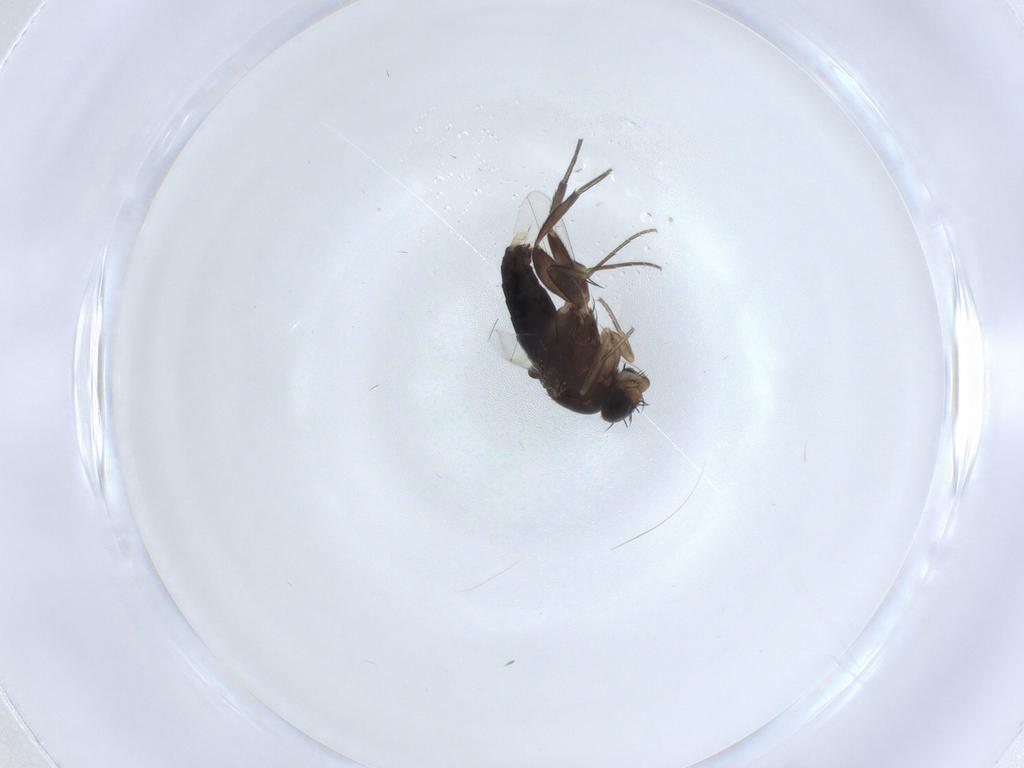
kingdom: Animalia
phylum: Arthropoda
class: Insecta
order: Diptera
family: Phoridae
